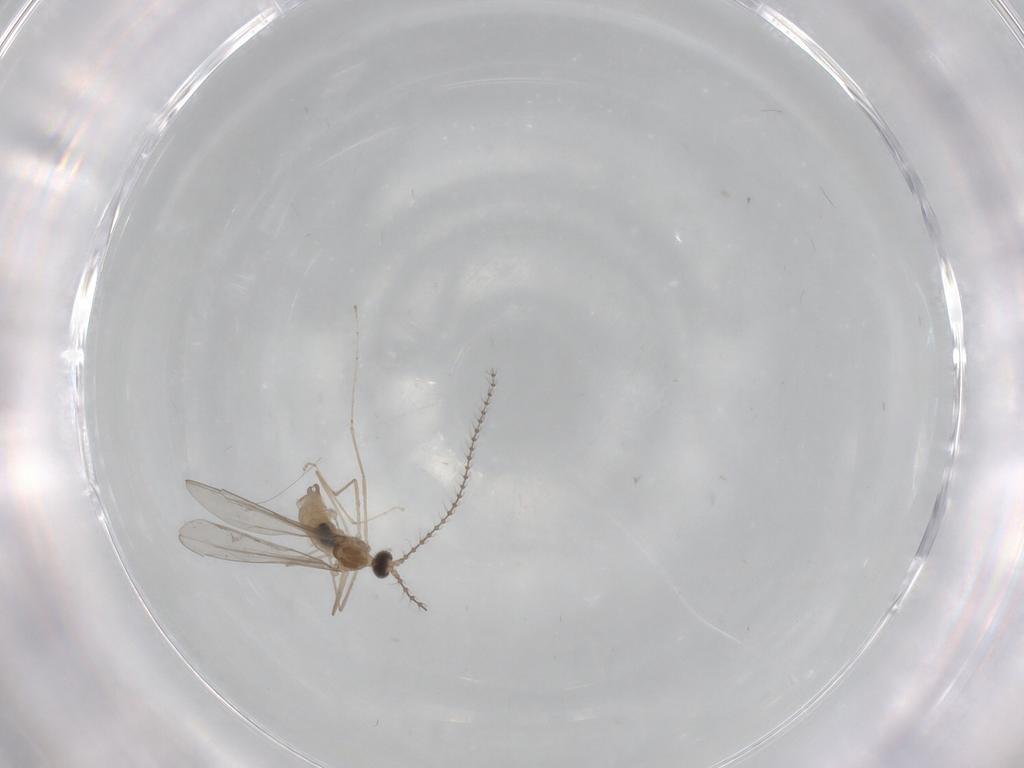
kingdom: Animalia
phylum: Arthropoda
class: Insecta
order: Diptera
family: Cecidomyiidae
